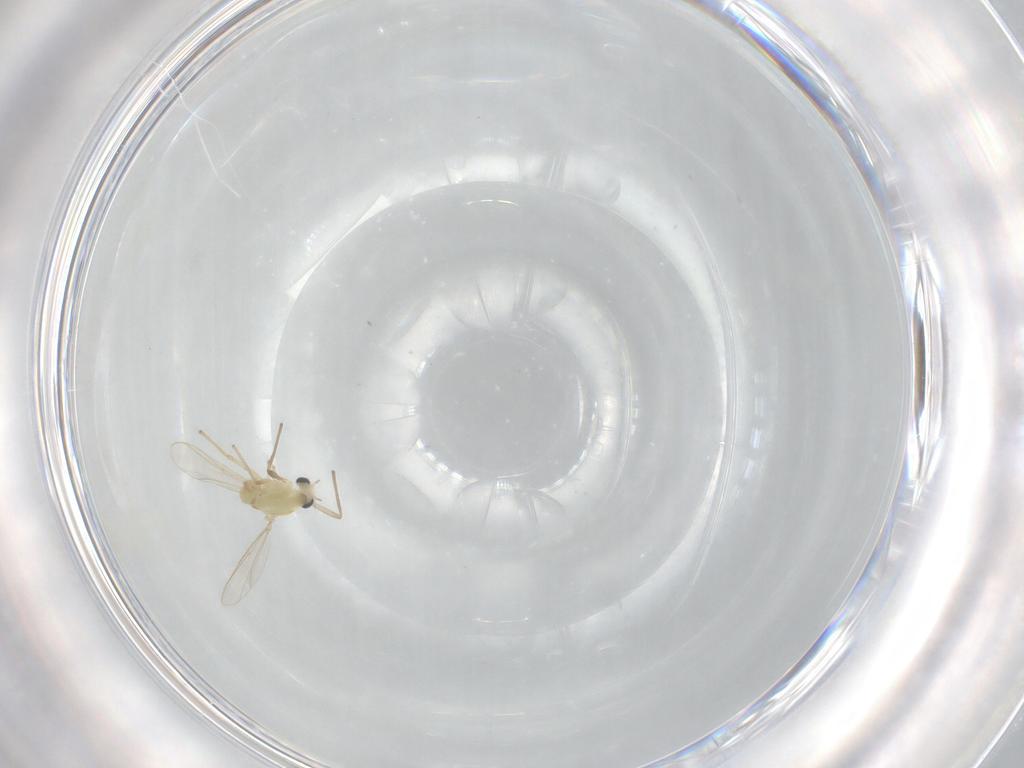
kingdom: Animalia
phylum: Arthropoda
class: Insecta
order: Diptera
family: Chironomidae
